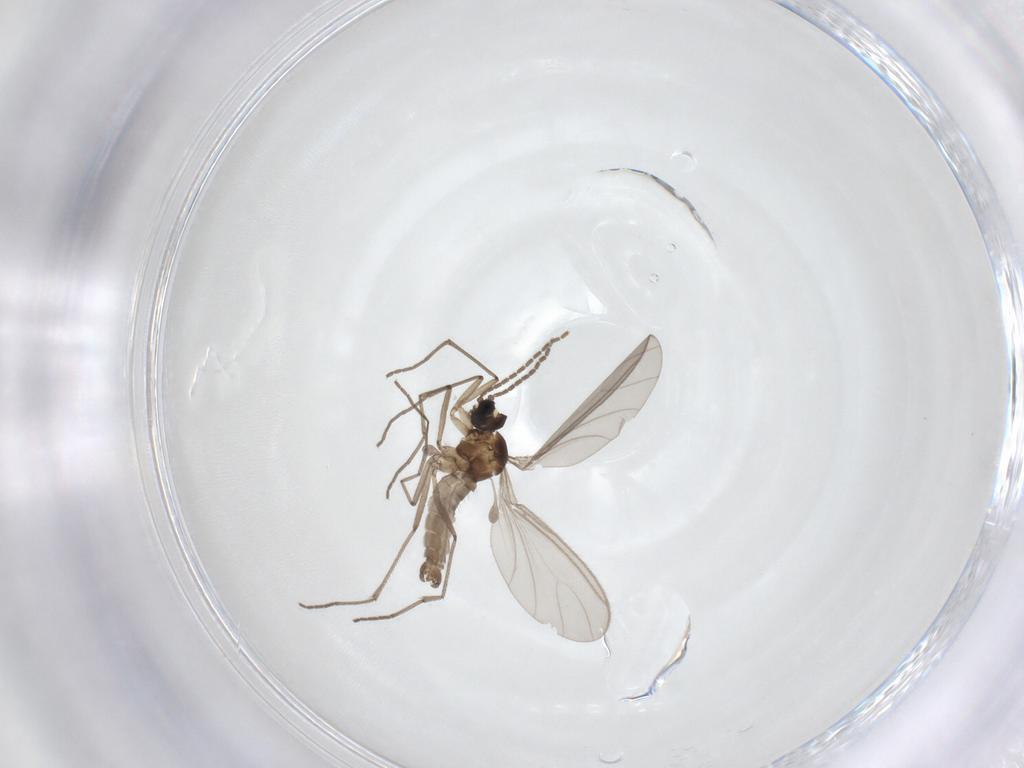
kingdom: Animalia
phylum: Arthropoda
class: Insecta
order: Diptera
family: Sciaridae
